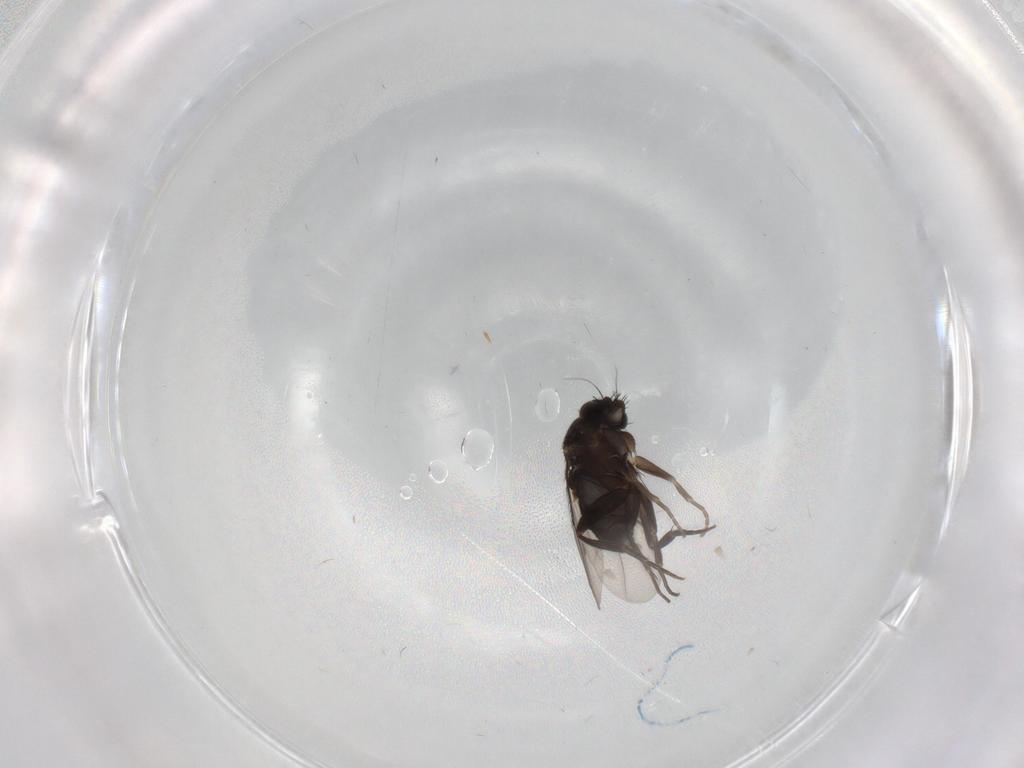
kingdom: Animalia
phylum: Arthropoda
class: Insecta
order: Diptera
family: Phoridae
